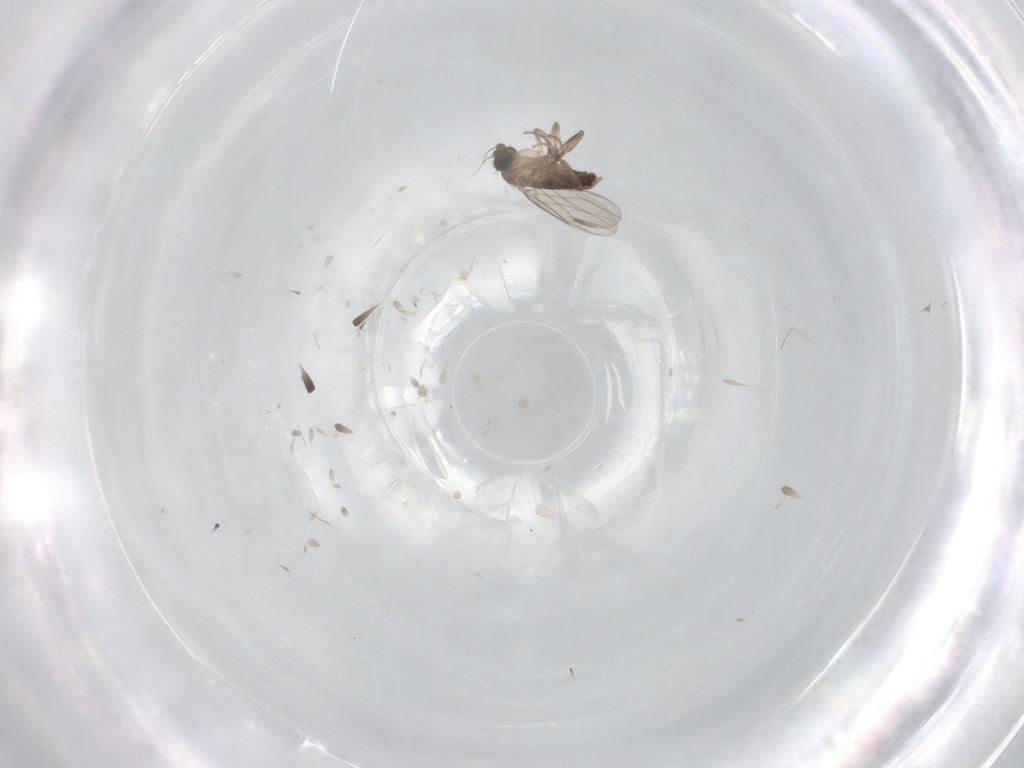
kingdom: Animalia
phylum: Arthropoda
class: Insecta
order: Diptera
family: Phoridae
